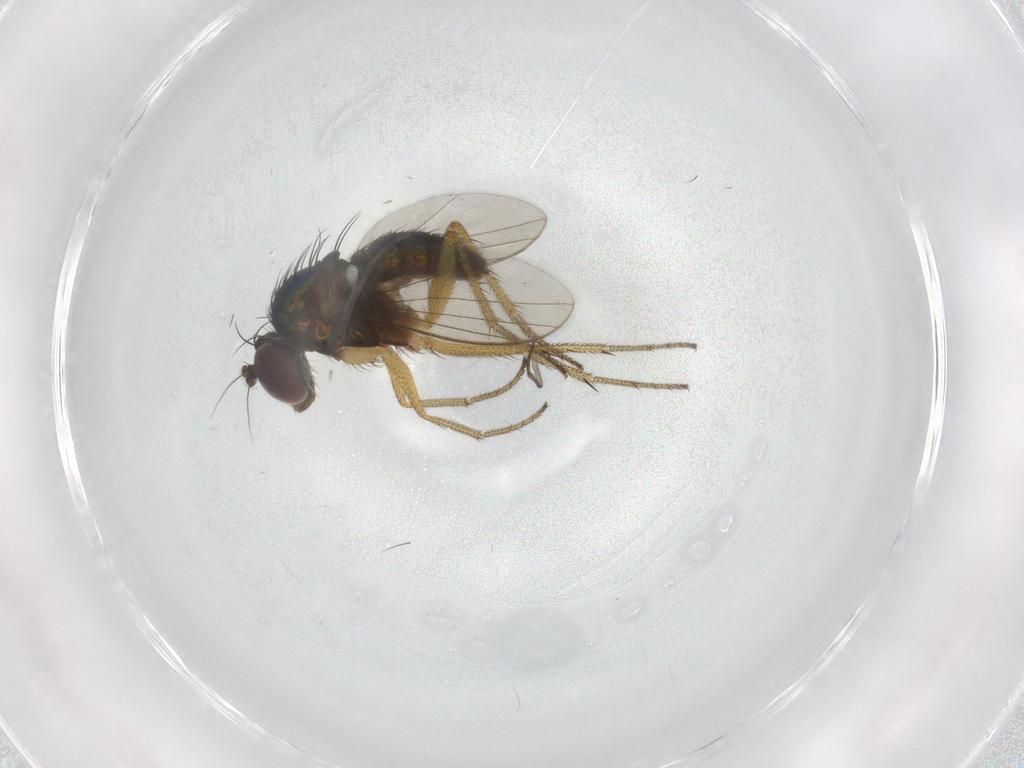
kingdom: Animalia
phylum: Arthropoda
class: Insecta
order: Diptera
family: Sciaridae
